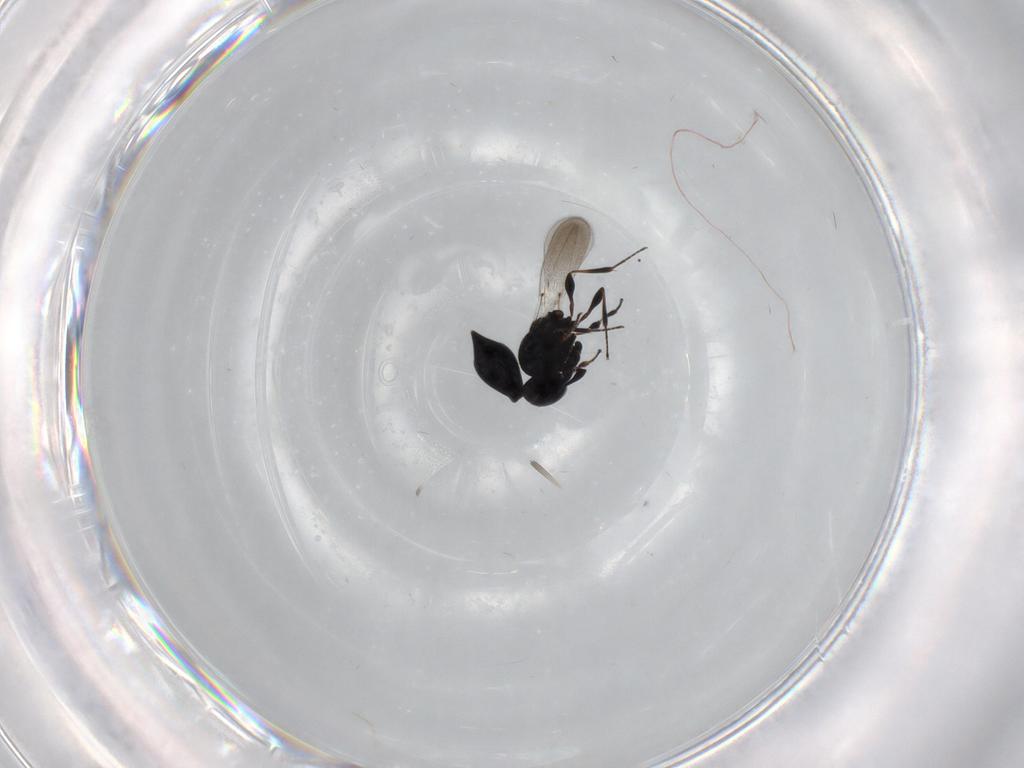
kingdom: Animalia
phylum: Arthropoda
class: Insecta
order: Hymenoptera
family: Platygastridae
